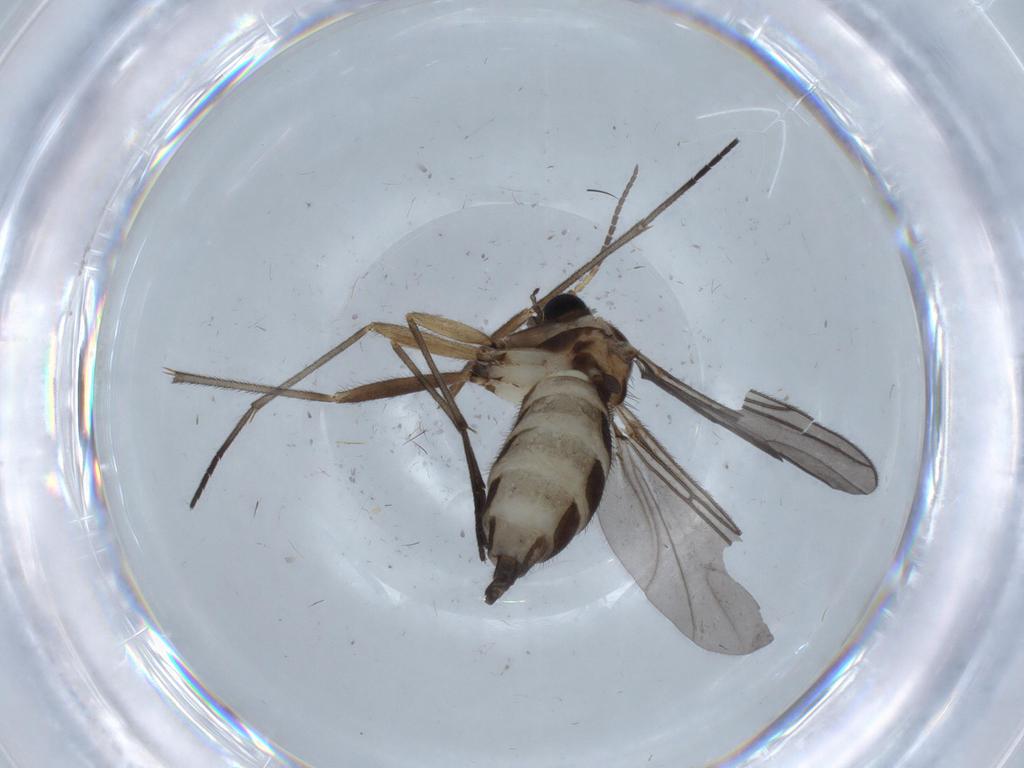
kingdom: Animalia
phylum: Arthropoda
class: Insecta
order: Diptera
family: Sciaridae
